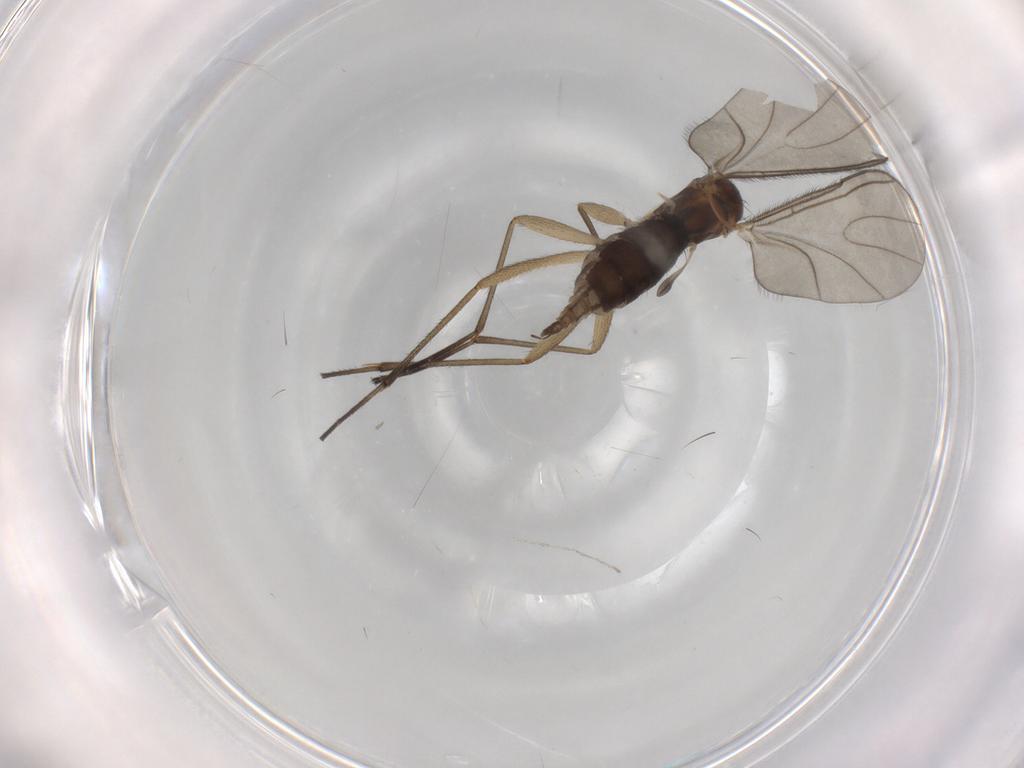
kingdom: Animalia
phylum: Arthropoda
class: Insecta
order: Diptera
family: Sciaridae
